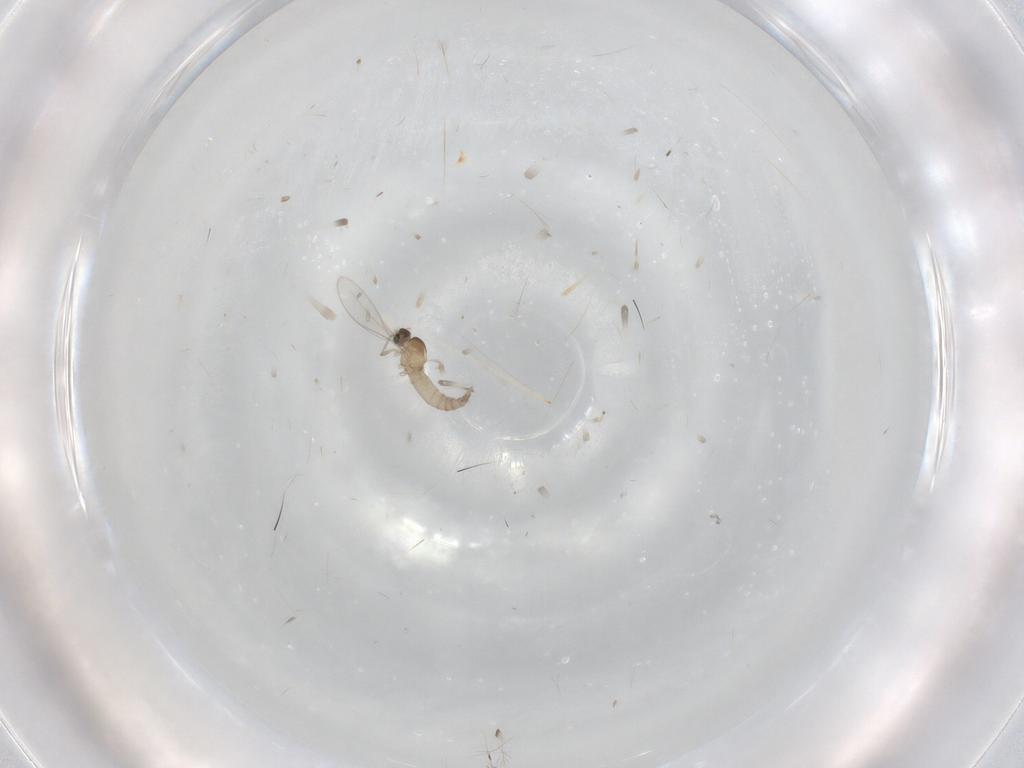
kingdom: Animalia
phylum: Arthropoda
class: Insecta
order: Diptera
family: Cecidomyiidae
